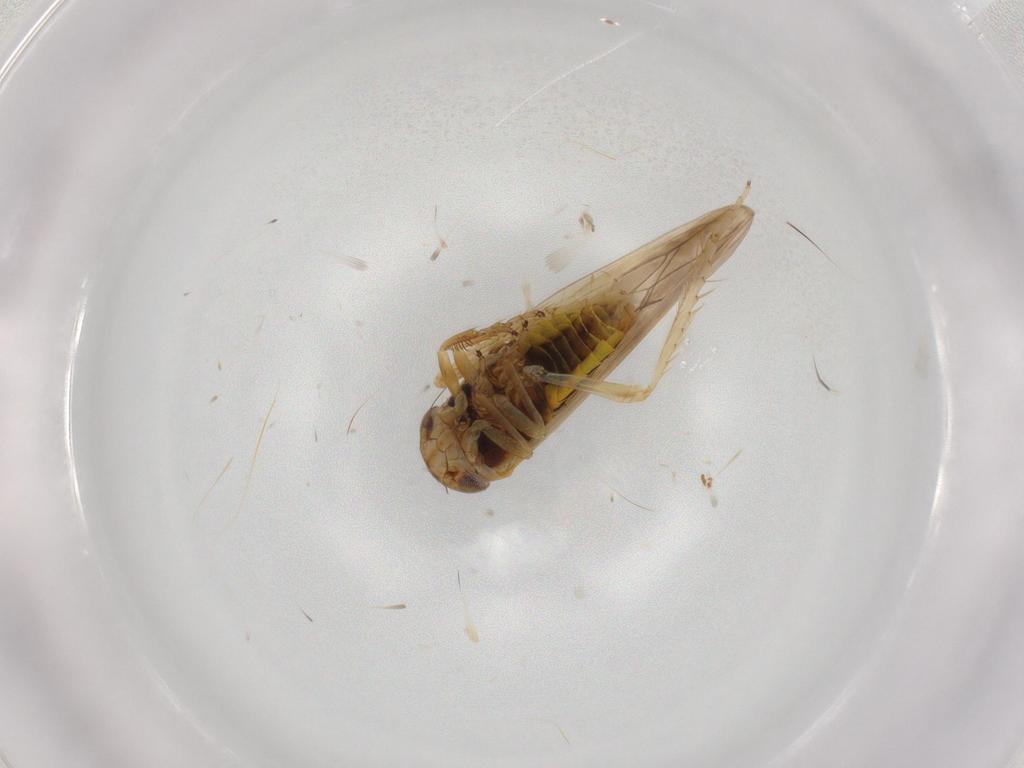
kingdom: Animalia
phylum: Arthropoda
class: Insecta
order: Hemiptera
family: Cicadellidae
